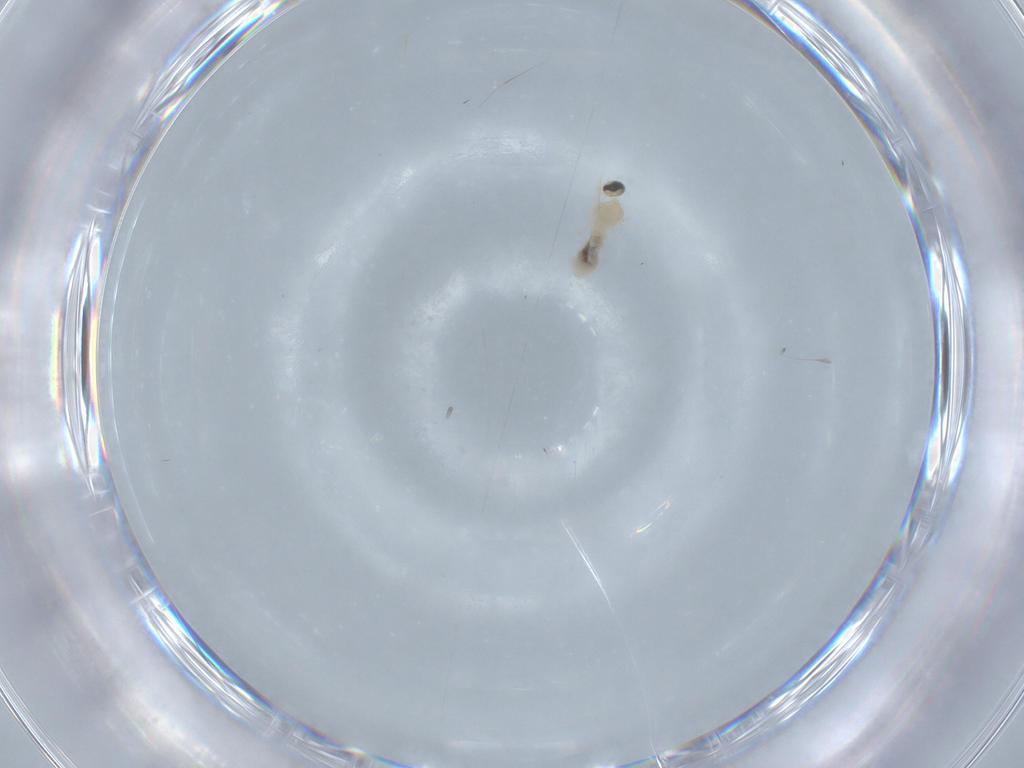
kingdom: Animalia
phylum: Arthropoda
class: Insecta
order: Diptera
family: Cecidomyiidae
